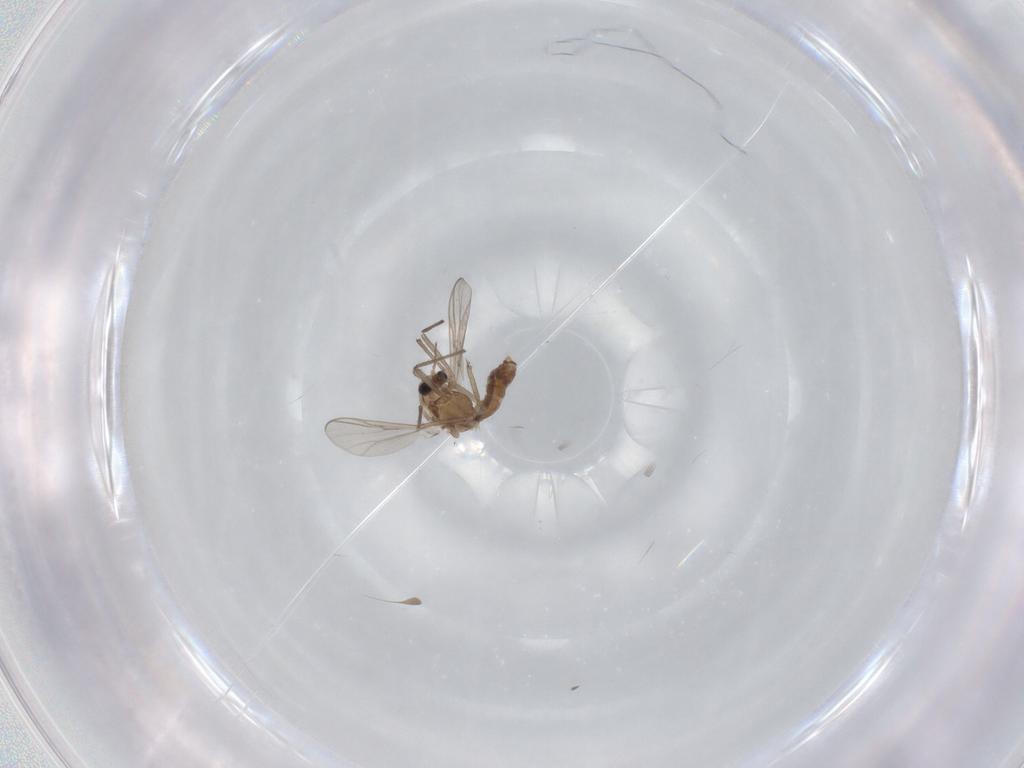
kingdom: Animalia
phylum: Arthropoda
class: Insecta
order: Diptera
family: Chironomidae
